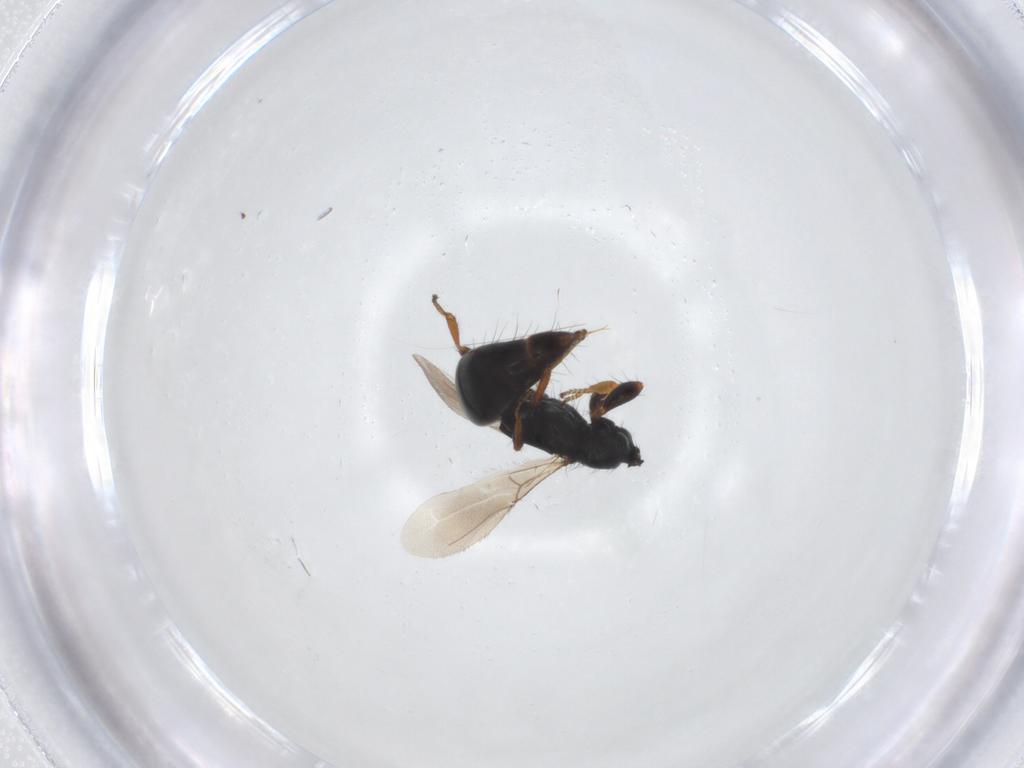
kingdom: Animalia
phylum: Arthropoda
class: Insecta
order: Hymenoptera
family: Bethylidae
